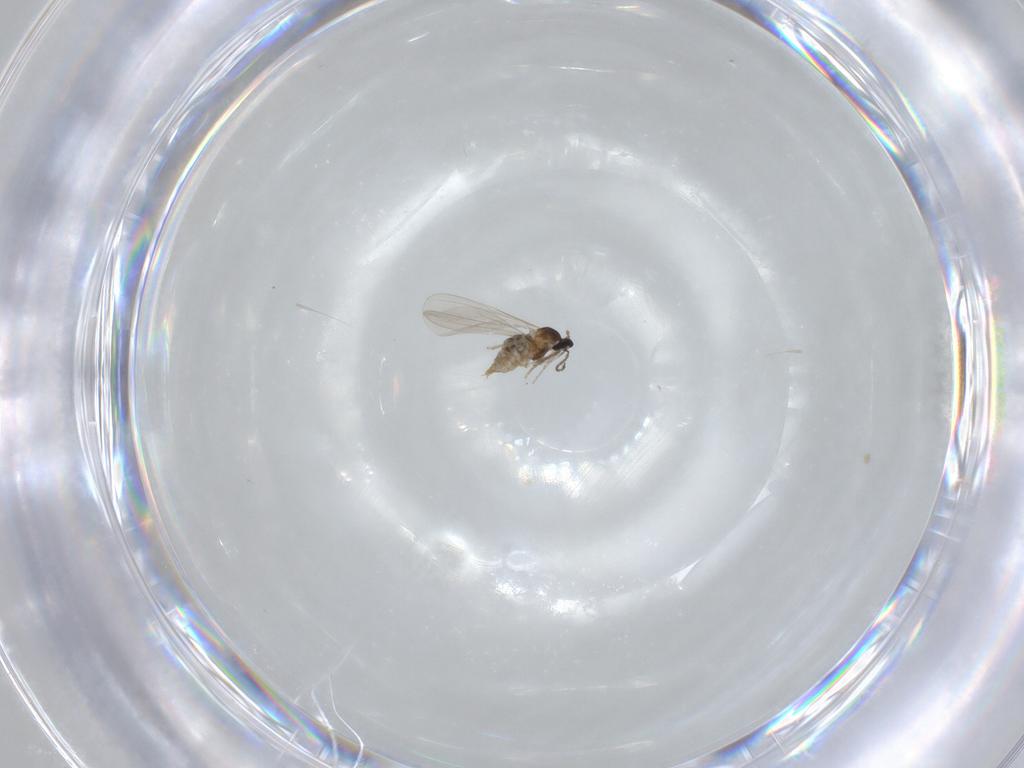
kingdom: Animalia
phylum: Arthropoda
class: Insecta
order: Diptera
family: Cecidomyiidae
